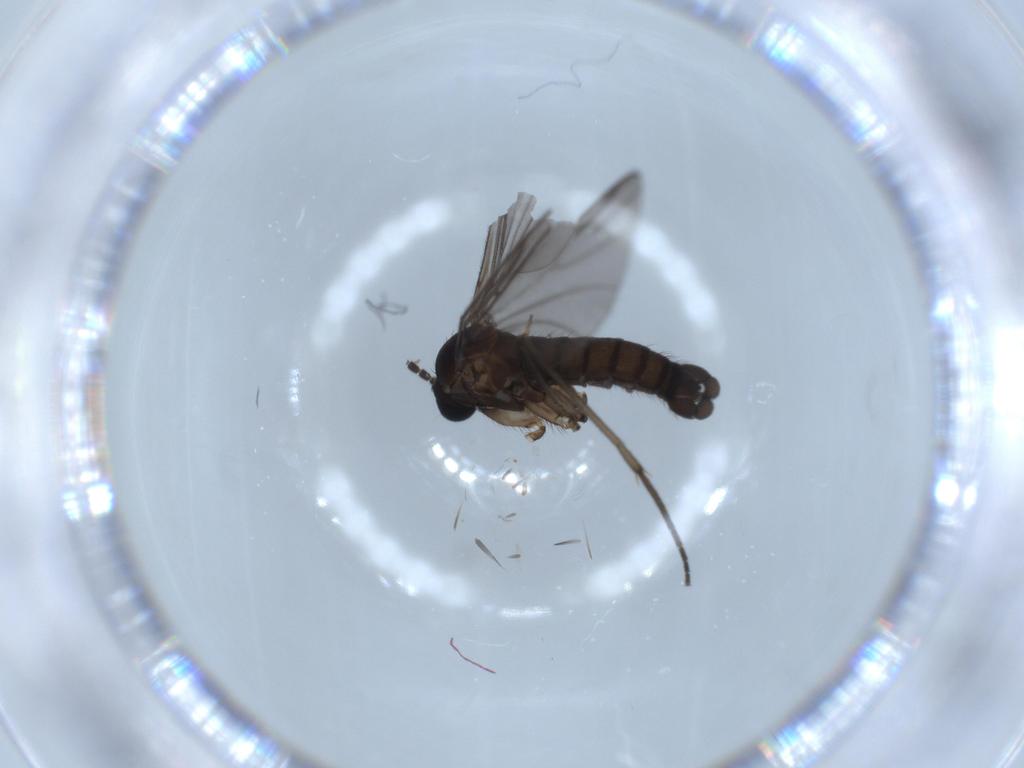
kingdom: Animalia
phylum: Arthropoda
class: Insecta
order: Diptera
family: Sciaridae
